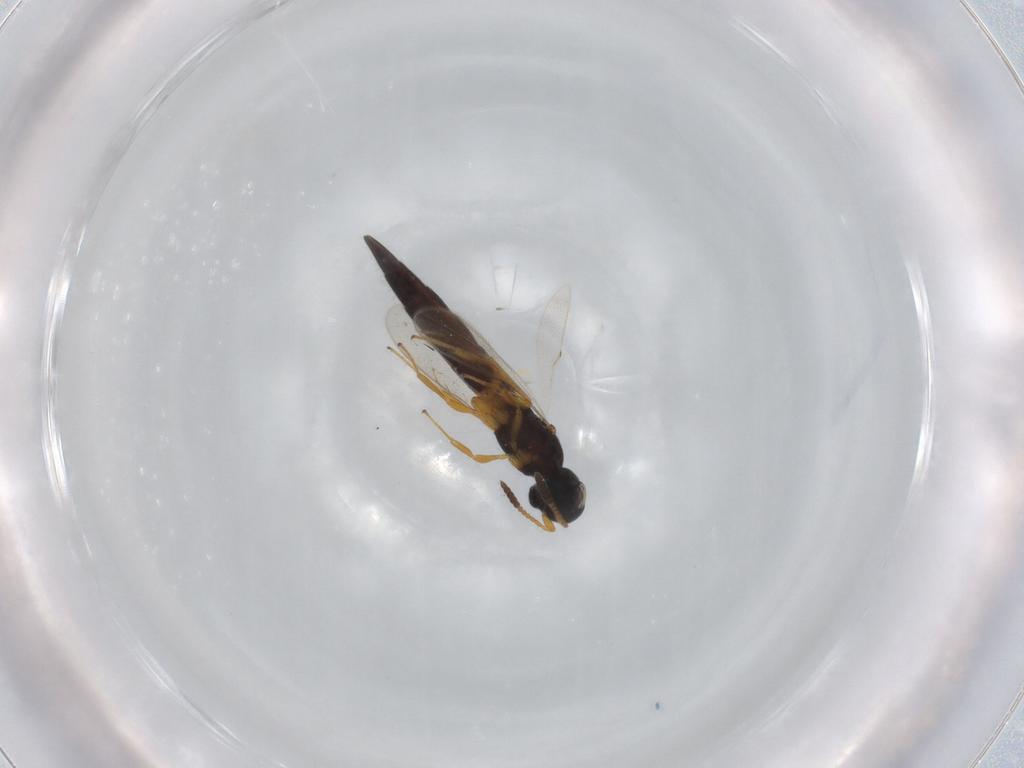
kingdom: Animalia
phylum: Arthropoda
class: Insecta
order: Hymenoptera
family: Scelionidae
